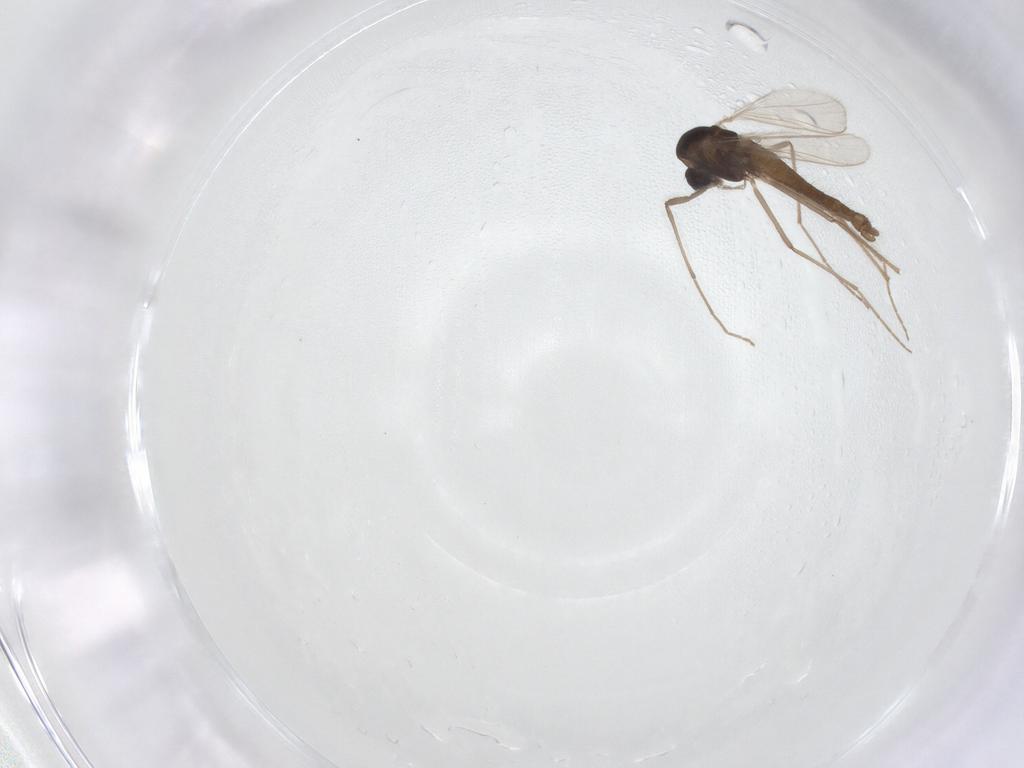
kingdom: Animalia
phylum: Arthropoda
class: Insecta
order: Diptera
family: Chironomidae
